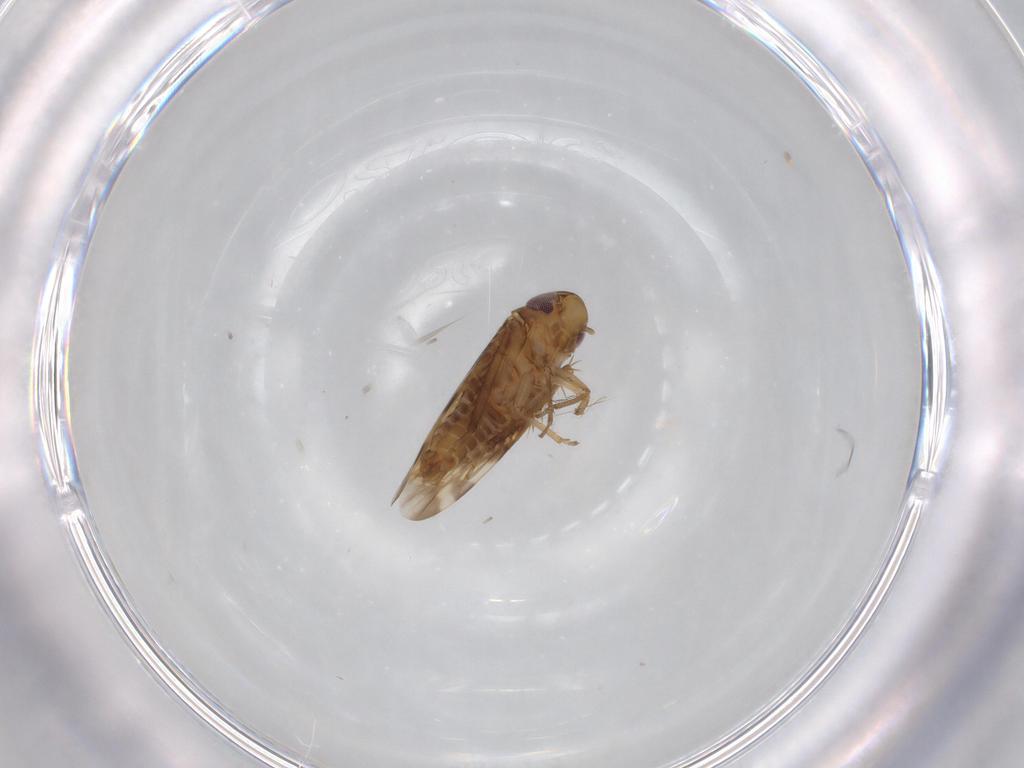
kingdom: Animalia
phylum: Arthropoda
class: Insecta
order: Hemiptera
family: Cicadellidae
